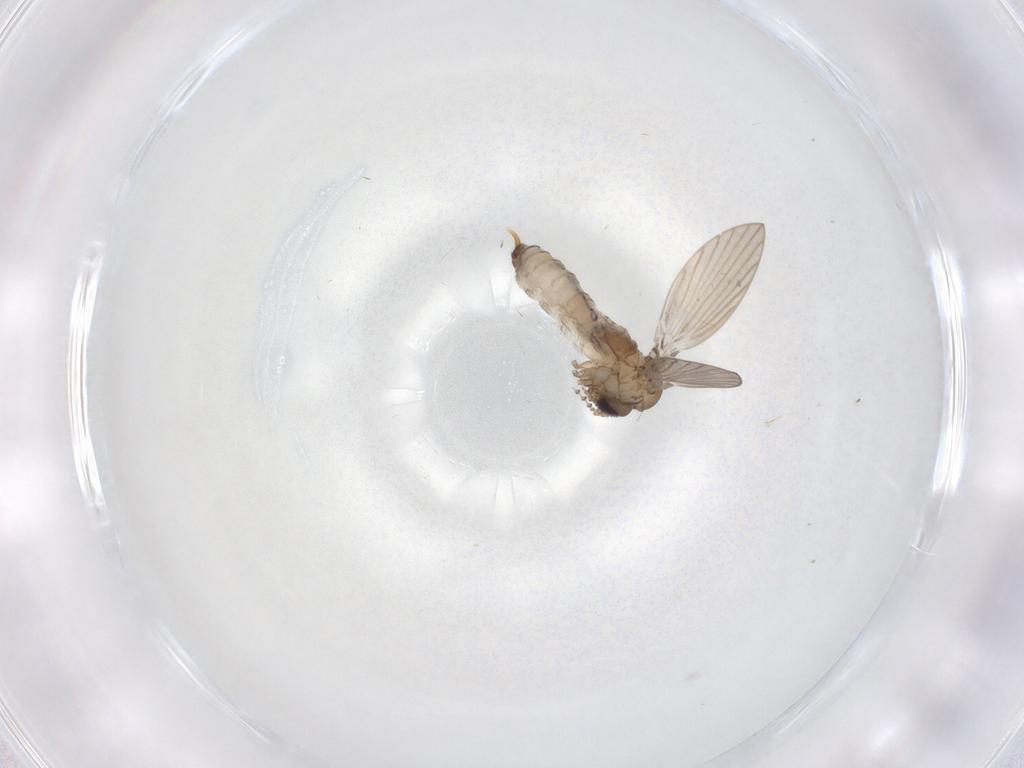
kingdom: Animalia
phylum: Arthropoda
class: Insecta
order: Diptera
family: Psychodidae
